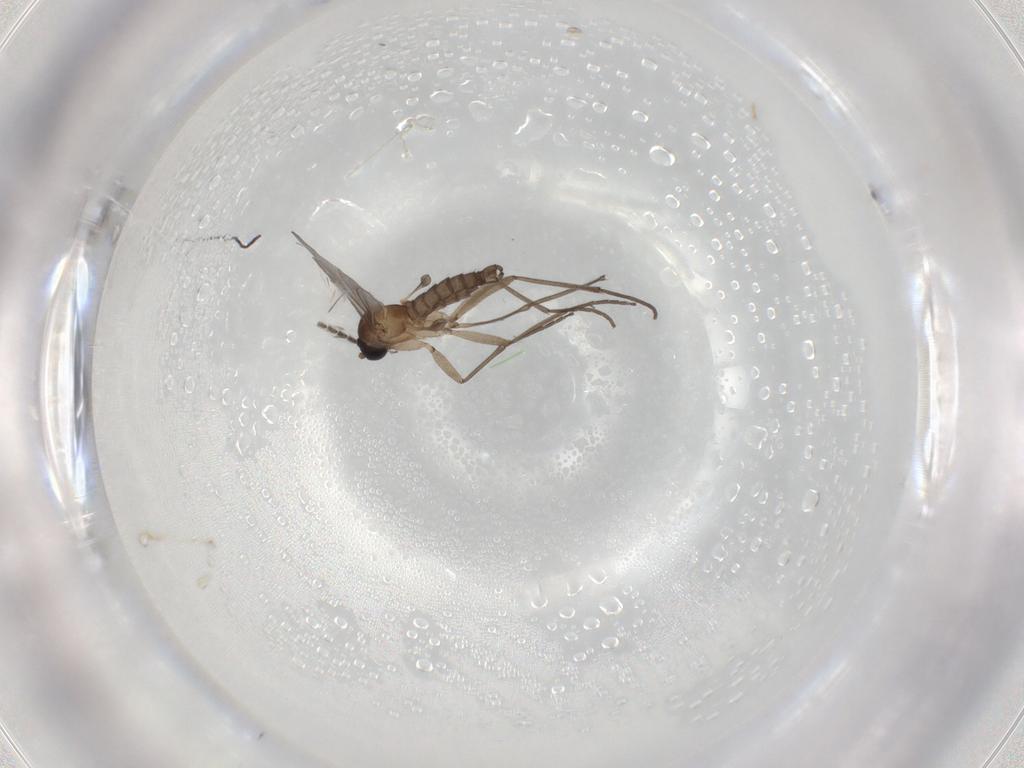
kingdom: Animalia
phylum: Arthropoda
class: Insecta
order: Diptera
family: Sciaridae
